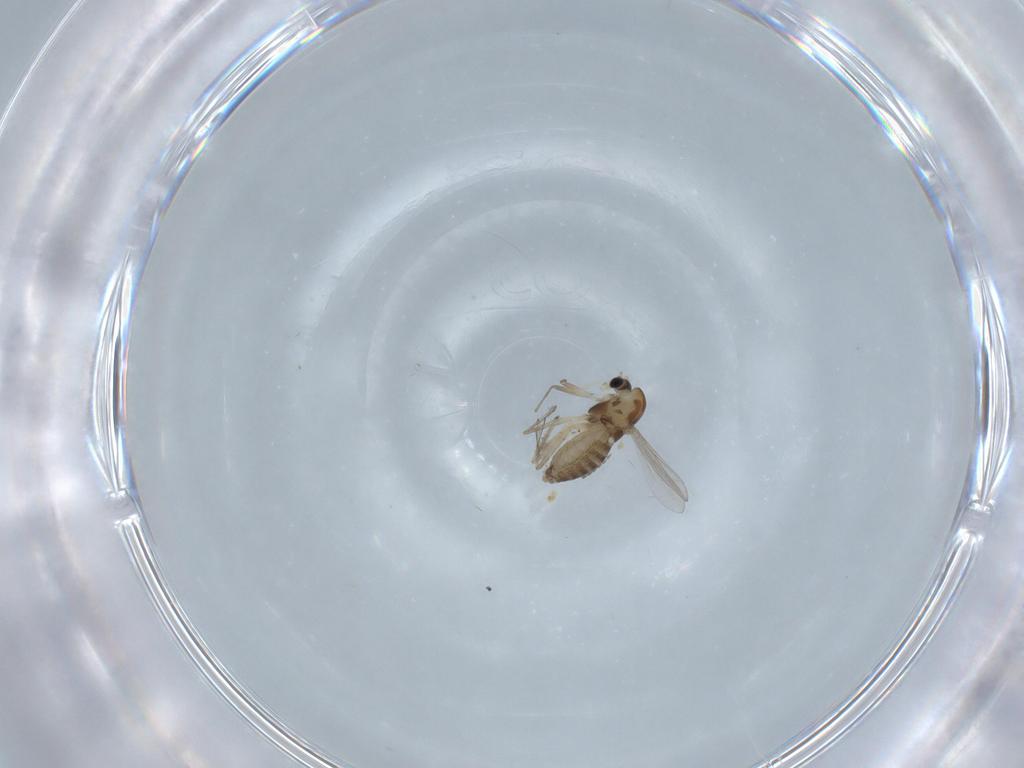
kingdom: Animalia
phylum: Arthropoda
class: Insecta
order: Diptera
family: Chironomidae
